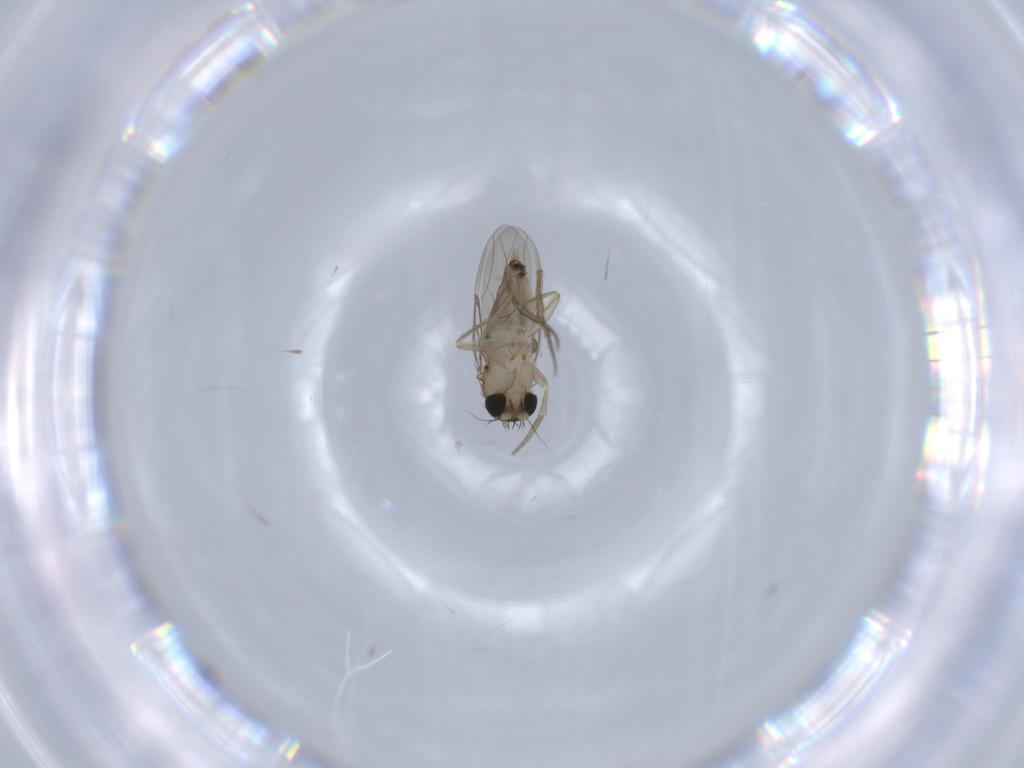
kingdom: Animalia
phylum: Arthropoda
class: Insecta
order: Diptera
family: Phoridae
